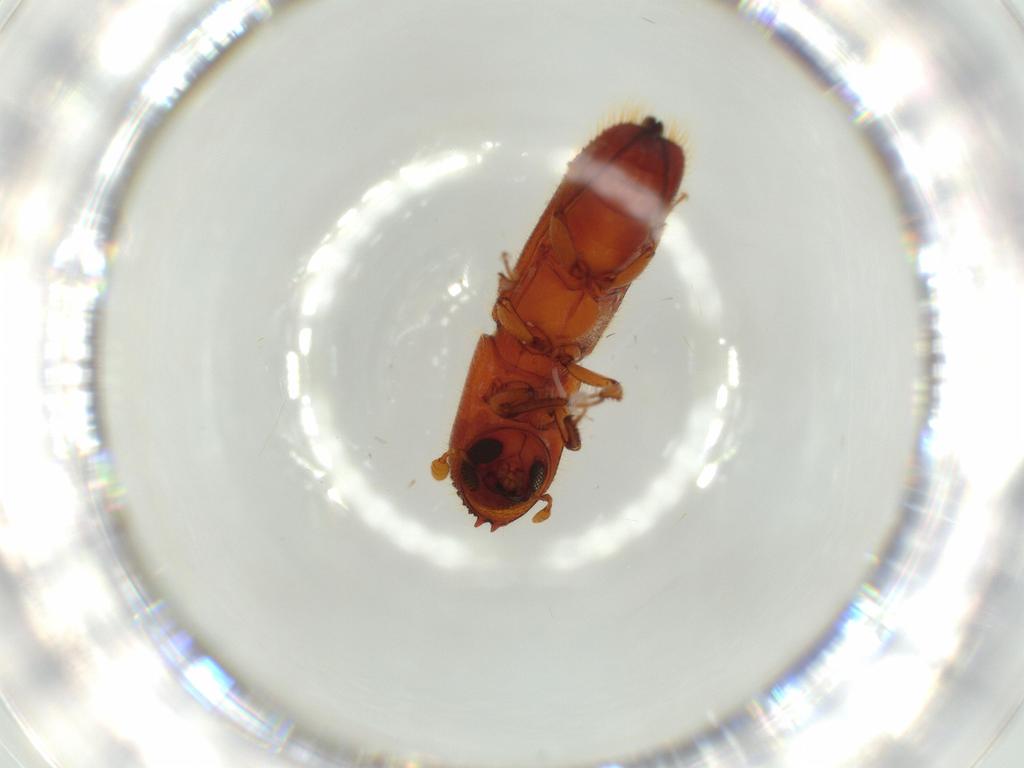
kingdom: Animalia
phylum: Arthropoda
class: Insecta
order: Coleoptera
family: Curculionidae
